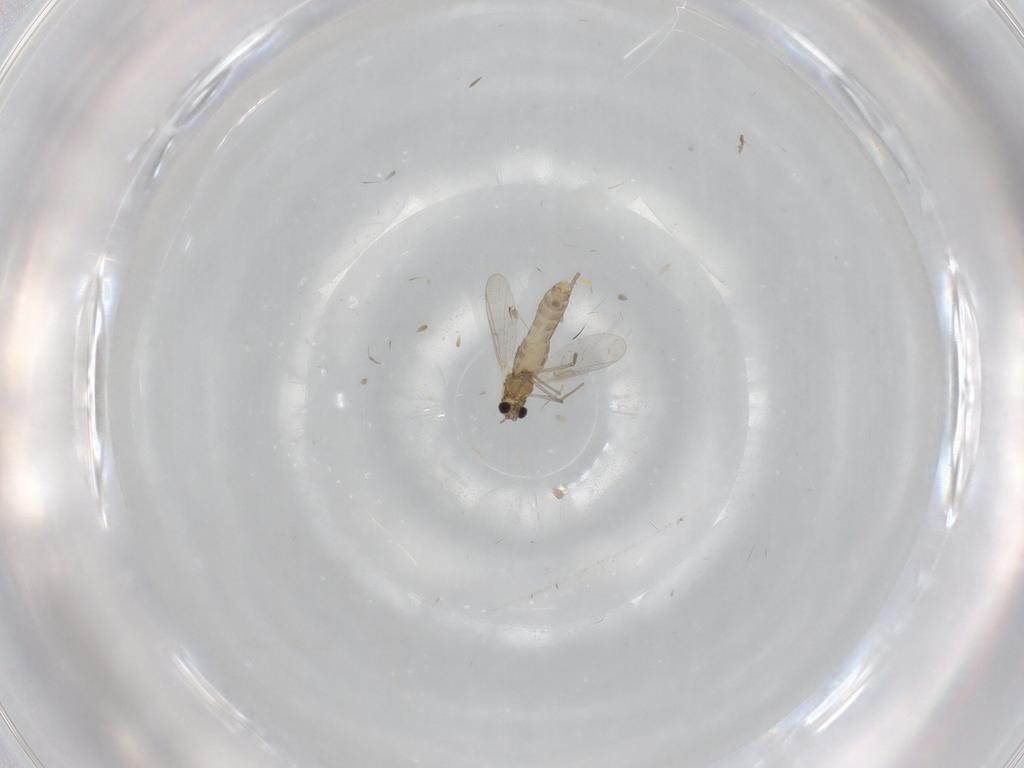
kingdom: Animalia
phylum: Arthropoda
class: Insecta
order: Diptera
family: Chironomidae
